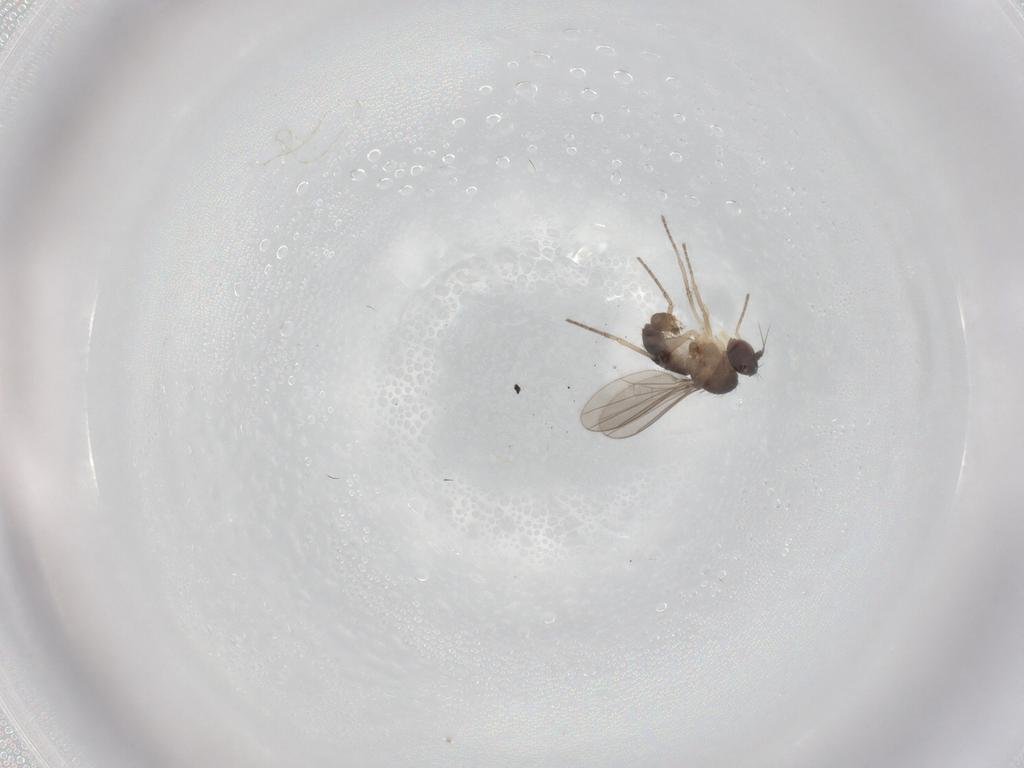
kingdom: Animalia
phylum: Arthropoda
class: Insecta
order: Diptera
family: Dolichopodidae
